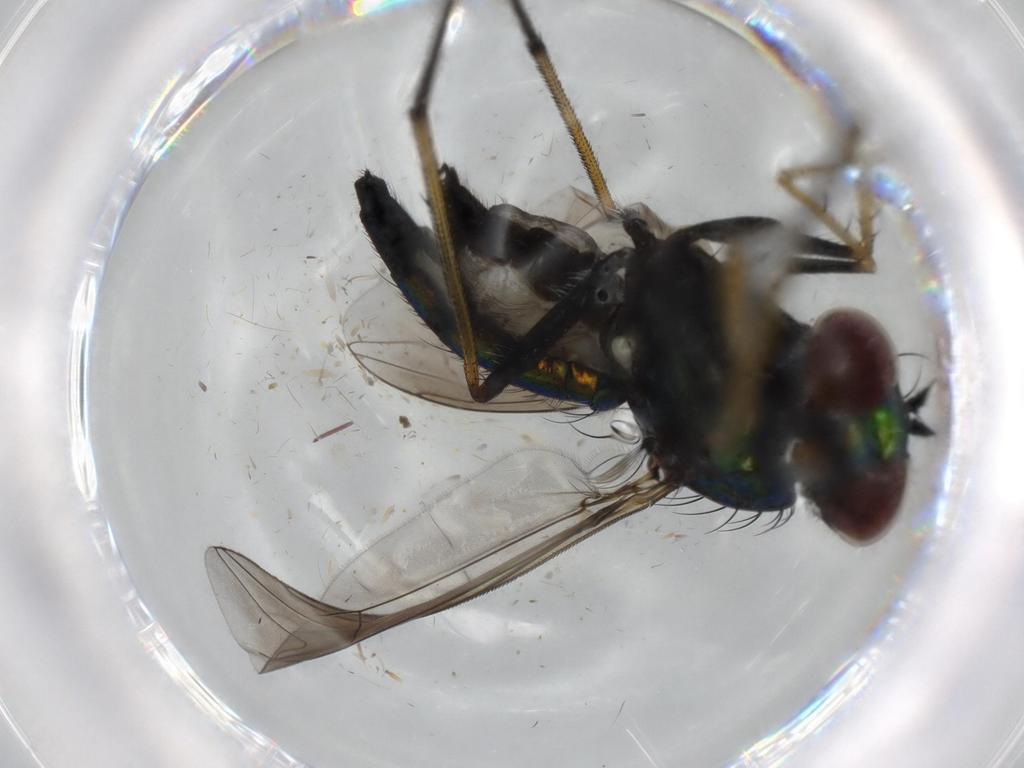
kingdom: Animalia
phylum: Arthropoda
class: Insecta
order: Diptera
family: Dolichopodidae
